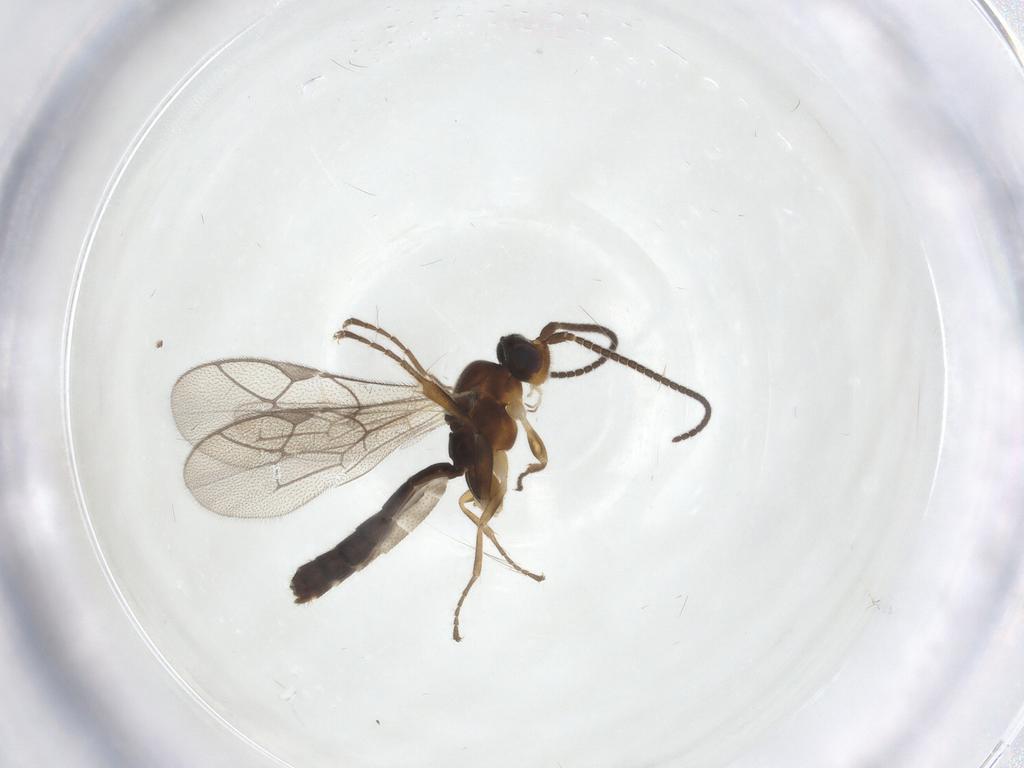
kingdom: Animalia
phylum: Arthropoda
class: Insecta
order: Hymenoptera
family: Ichneumonidae
